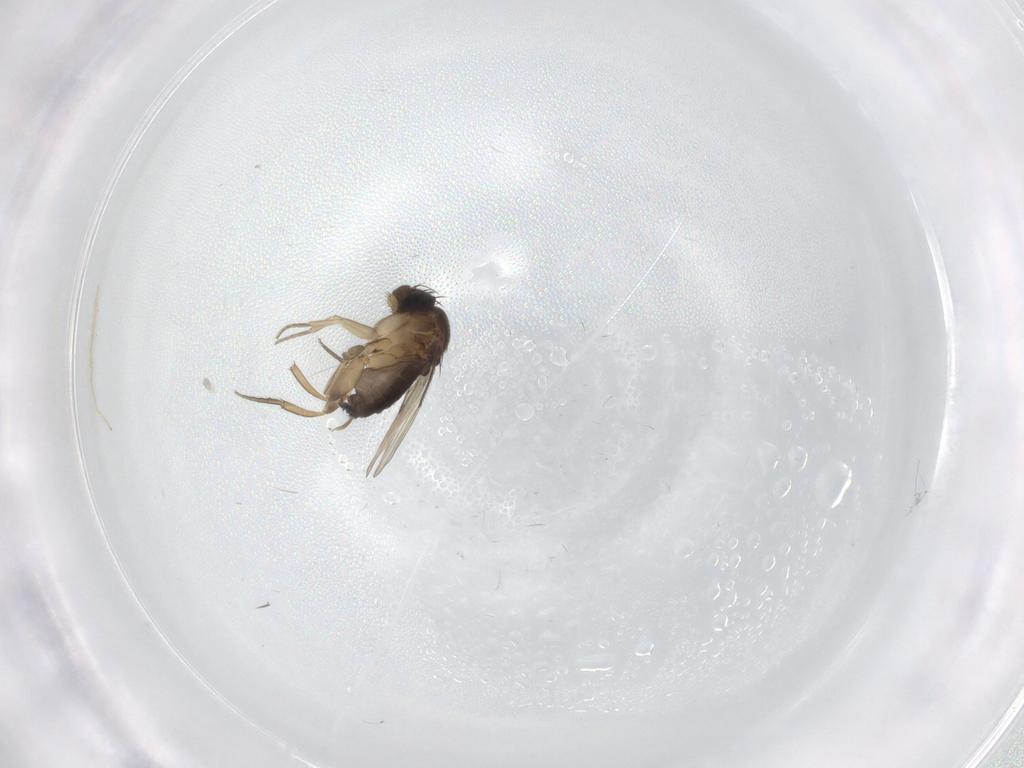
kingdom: Animalia
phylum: Arthropoda
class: Insecta
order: Diptera
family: Phoridae
